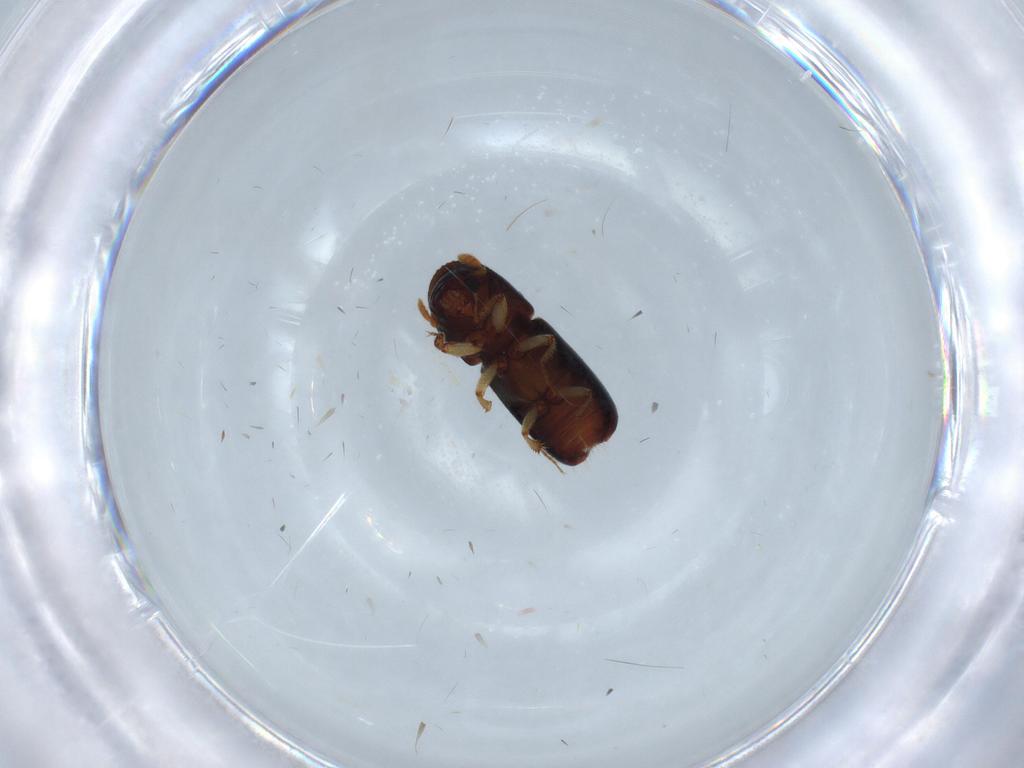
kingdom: Animalia
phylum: Arthropoda
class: Insecta
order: Coleoptera
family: Curculionidae
